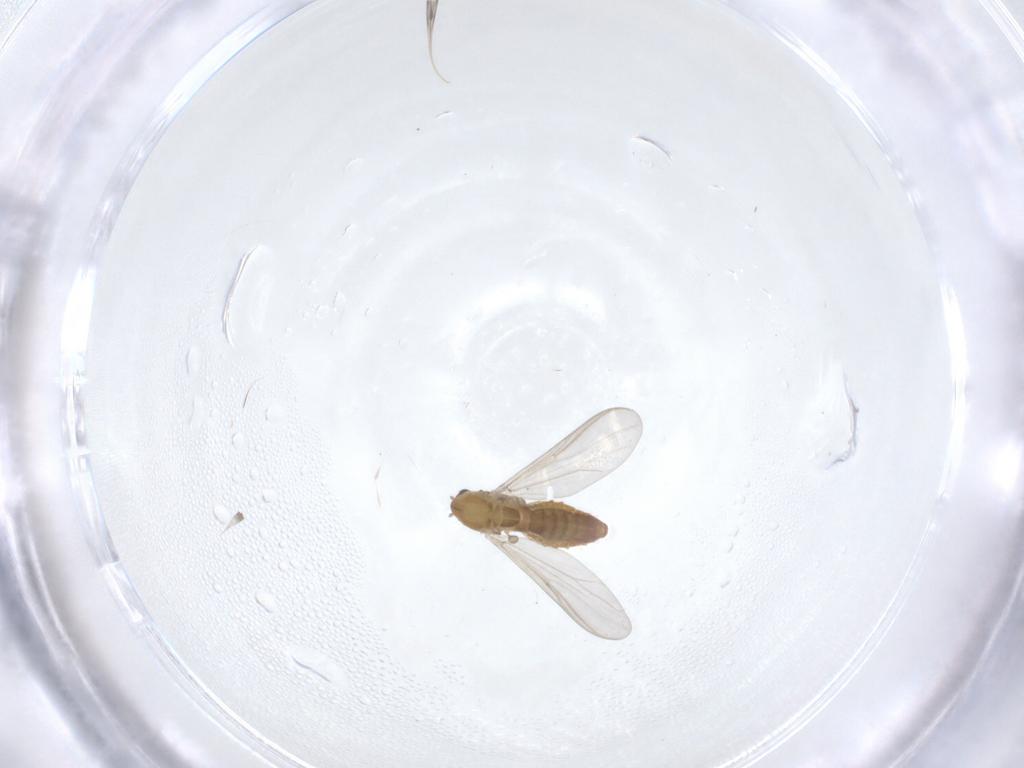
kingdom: Animalia
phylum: Arthropoda
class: Insecta
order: Diptera
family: Chironomidae
